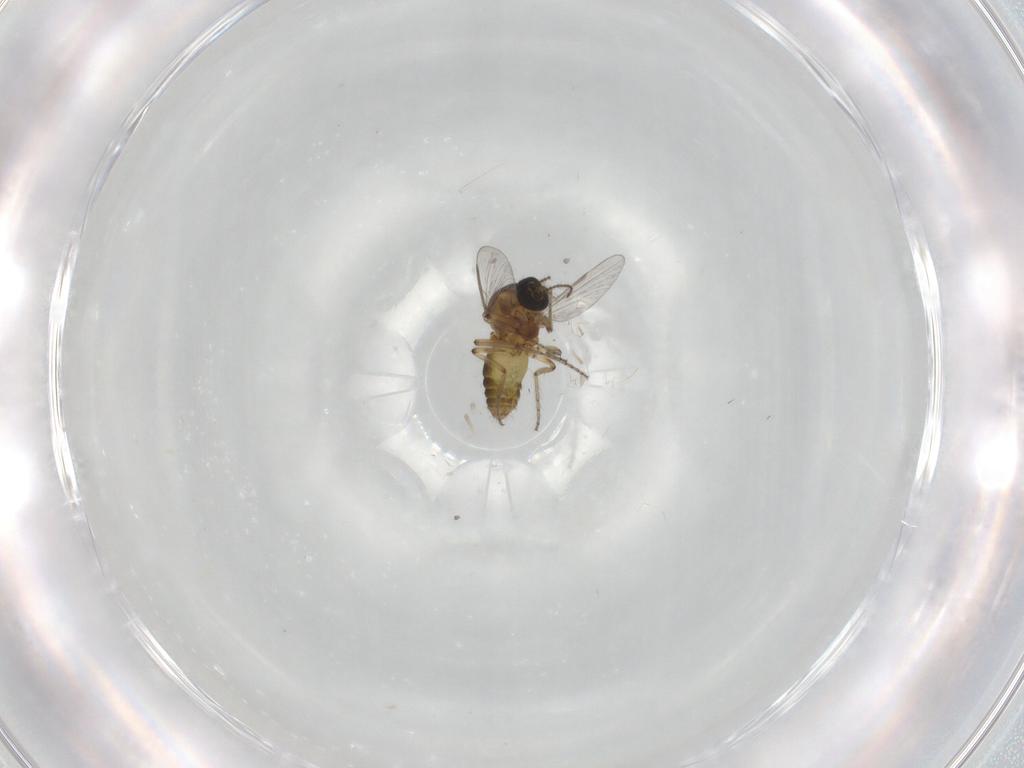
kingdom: Animalia
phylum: Arthropoda
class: Insecta
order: Diptera
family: Ceratopogonidae
